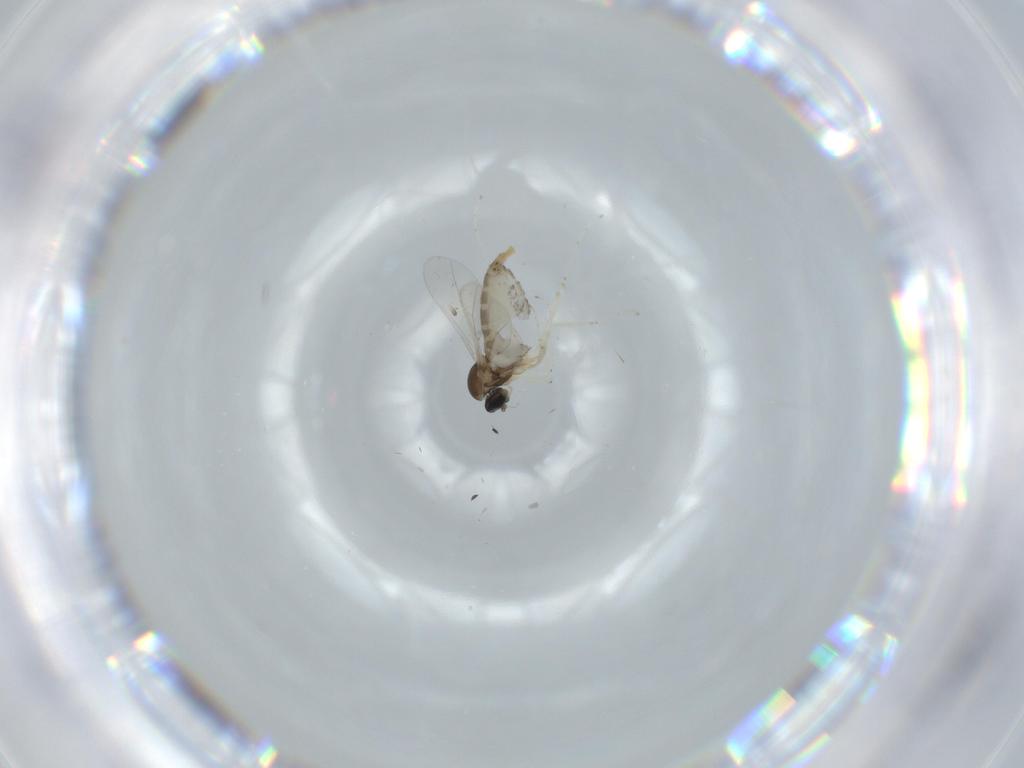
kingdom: Animalia
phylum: Arthropoda
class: Insecta
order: Diptera
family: Cecidomyiidae
